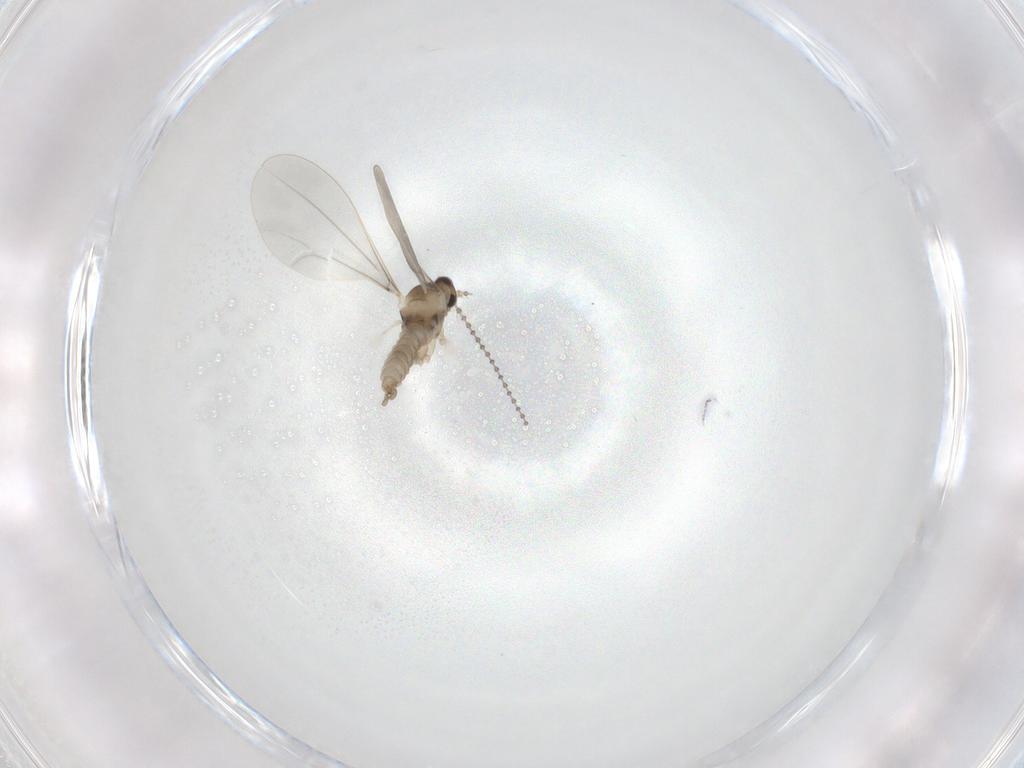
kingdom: Animalia
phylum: Arthropoda
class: Insecta
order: Diptera
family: Cecidomyiidae
